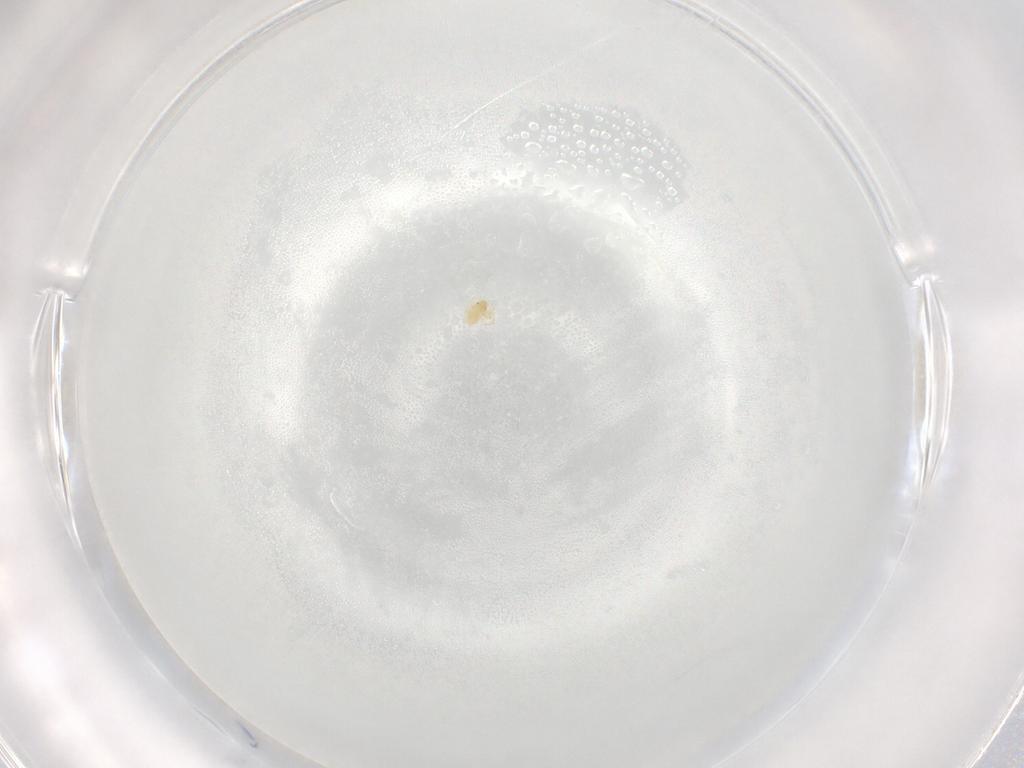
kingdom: Animalia
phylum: Arthropoda
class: Arachnida
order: Trombidiformes
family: Sperchontidae
